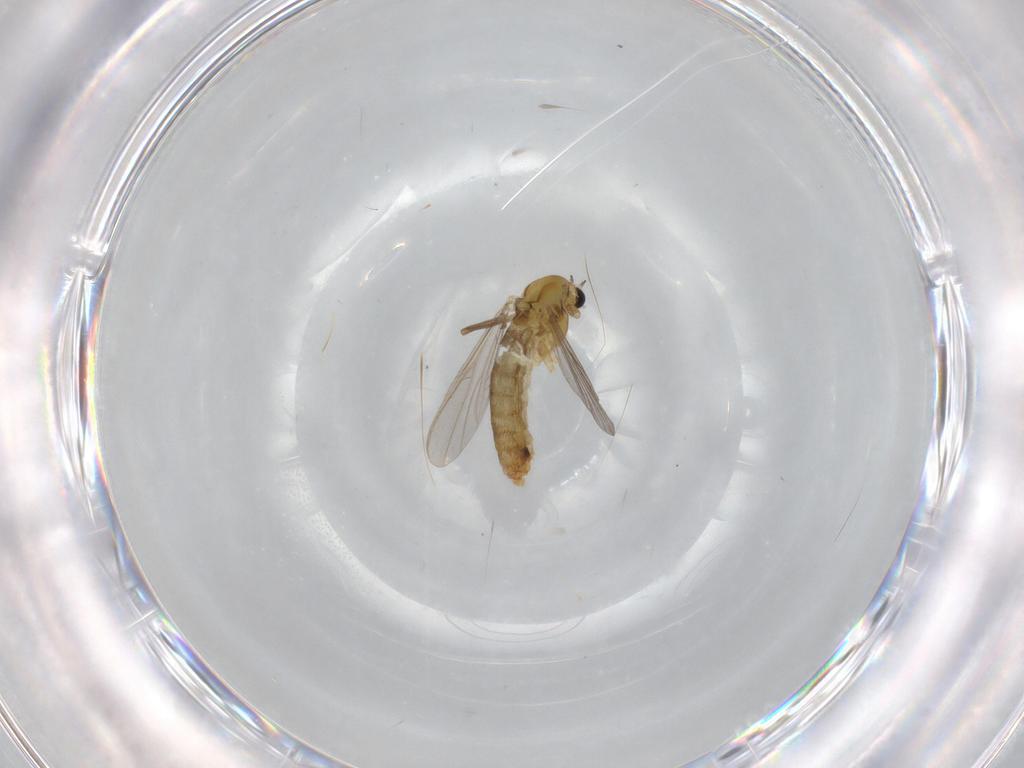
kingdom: Animalia
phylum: Arthropoda
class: Insecta
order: Diptera
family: Chironomidae
